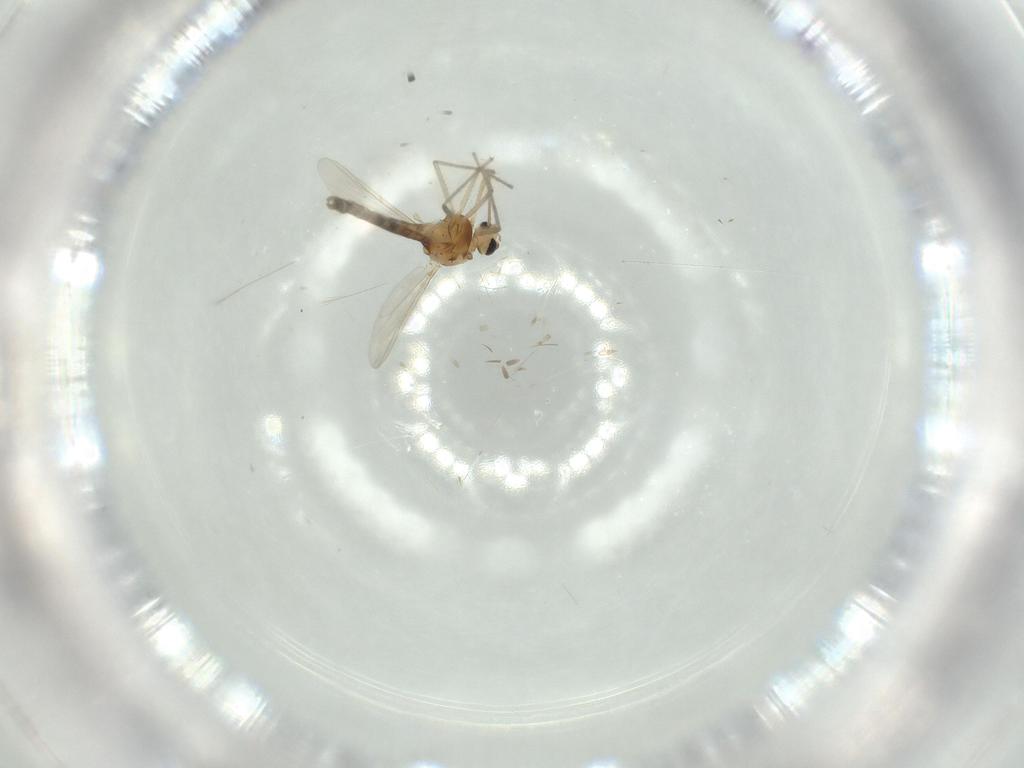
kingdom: Animalia
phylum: Arthropoda
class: Insecta
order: Diptera
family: Chironomidae
